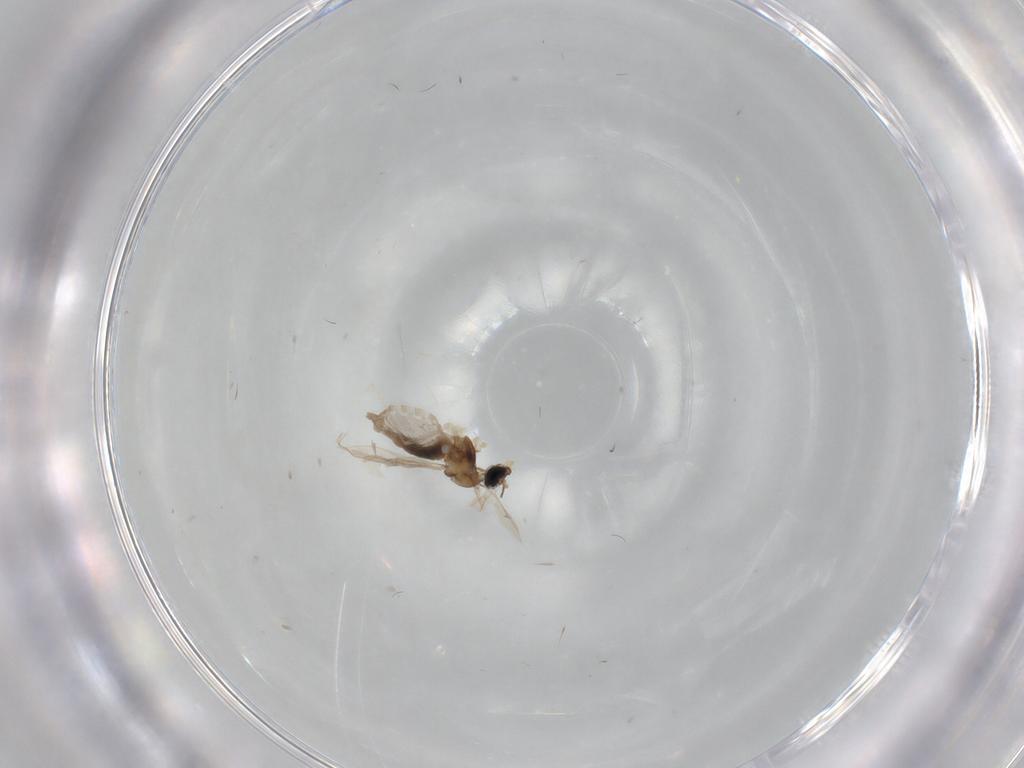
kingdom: Animalia
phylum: Arthropoda
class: Insecta
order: Diptera
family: Cecidomyiidae
